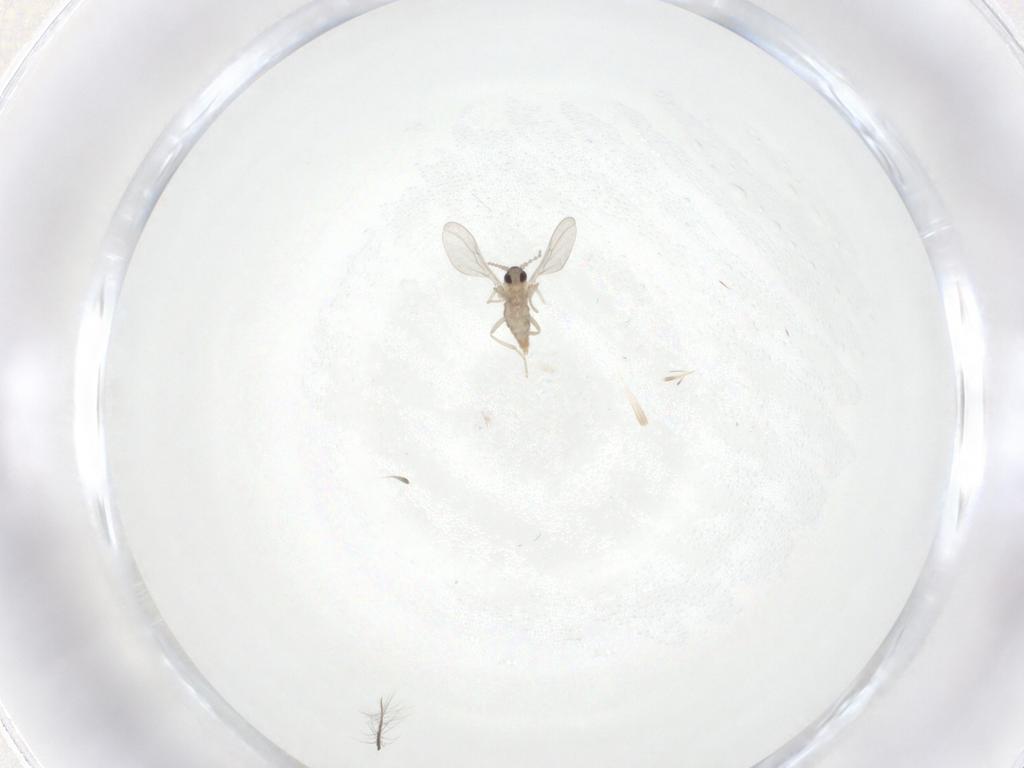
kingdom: Animalia
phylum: Arthropoda
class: Insecta
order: Diptera
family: Cecidomyiidae
